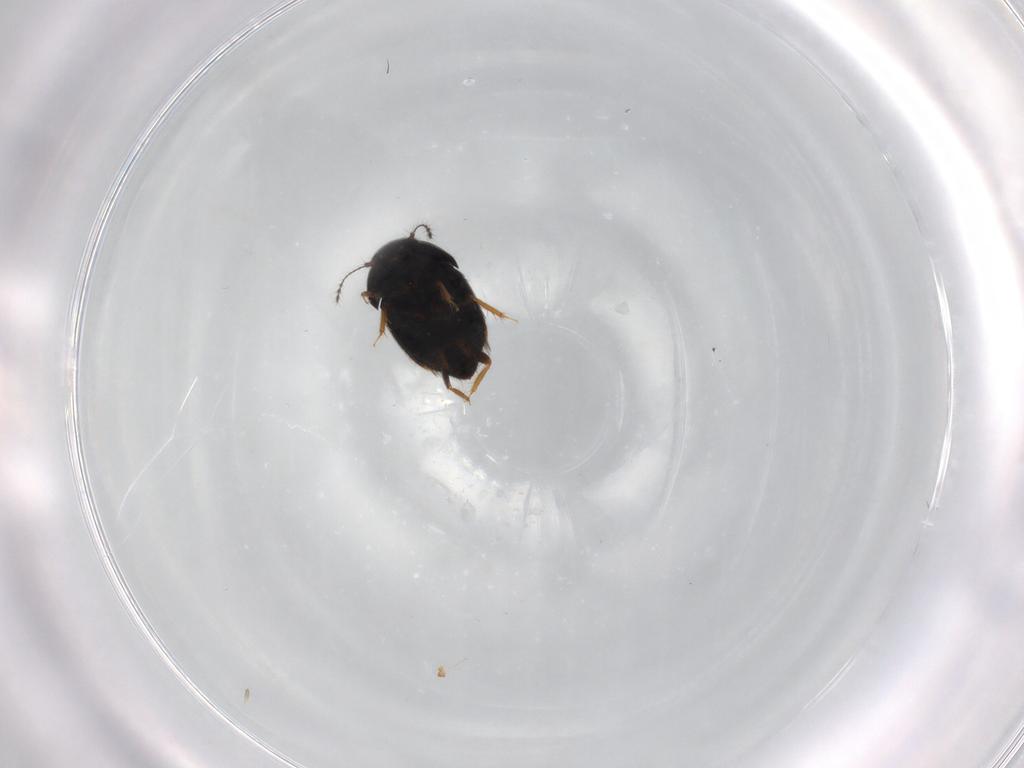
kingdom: Animalia
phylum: Arthropoda
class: Insecta
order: Coleoptera
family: Ptiliidae
